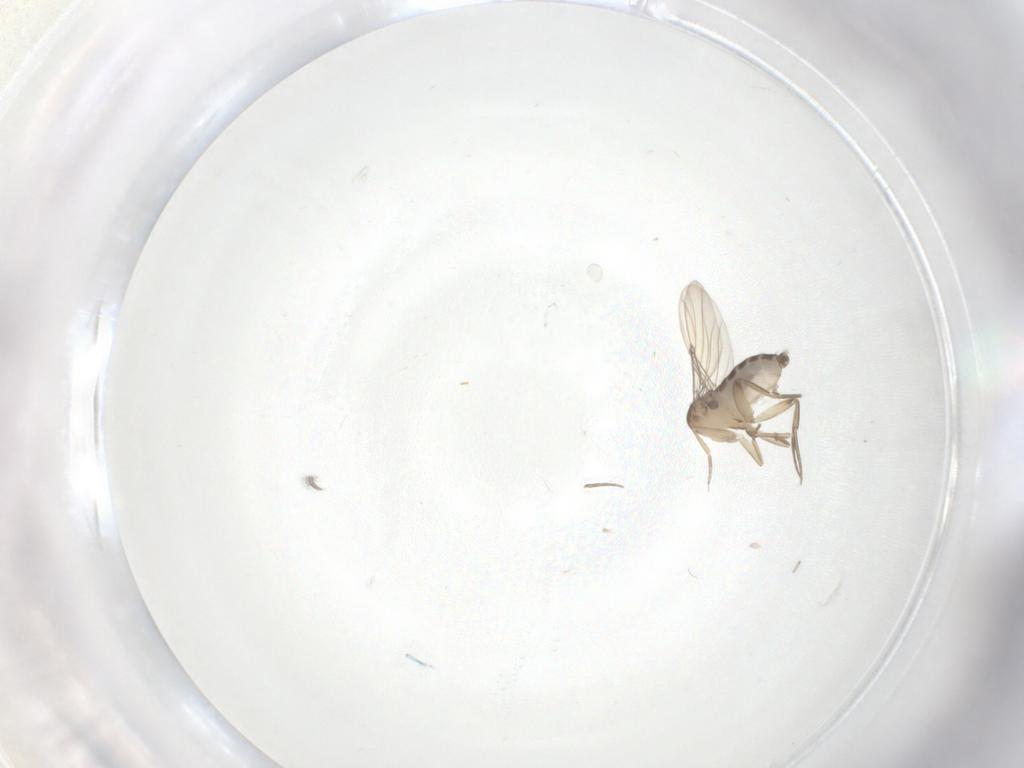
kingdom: Animalia
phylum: Arthropoda
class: Insecta
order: Diptera
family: Phoridae
